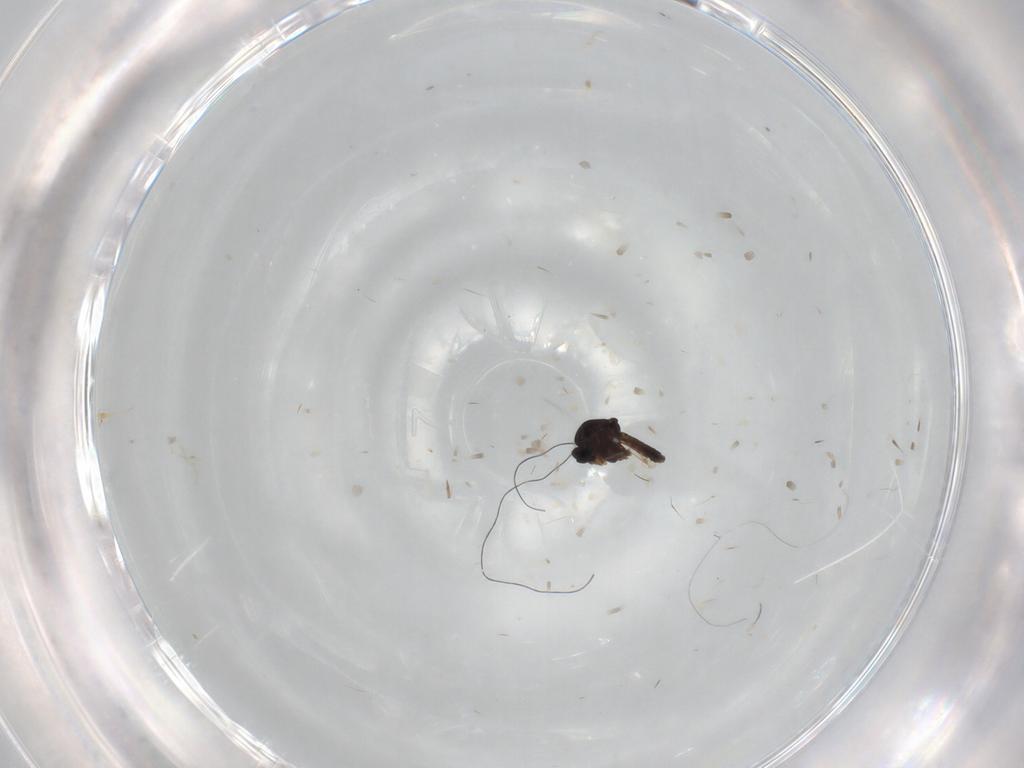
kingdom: Animalia
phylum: Arthropoda
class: Insecta
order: Diptera
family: Ceratopogonidae
